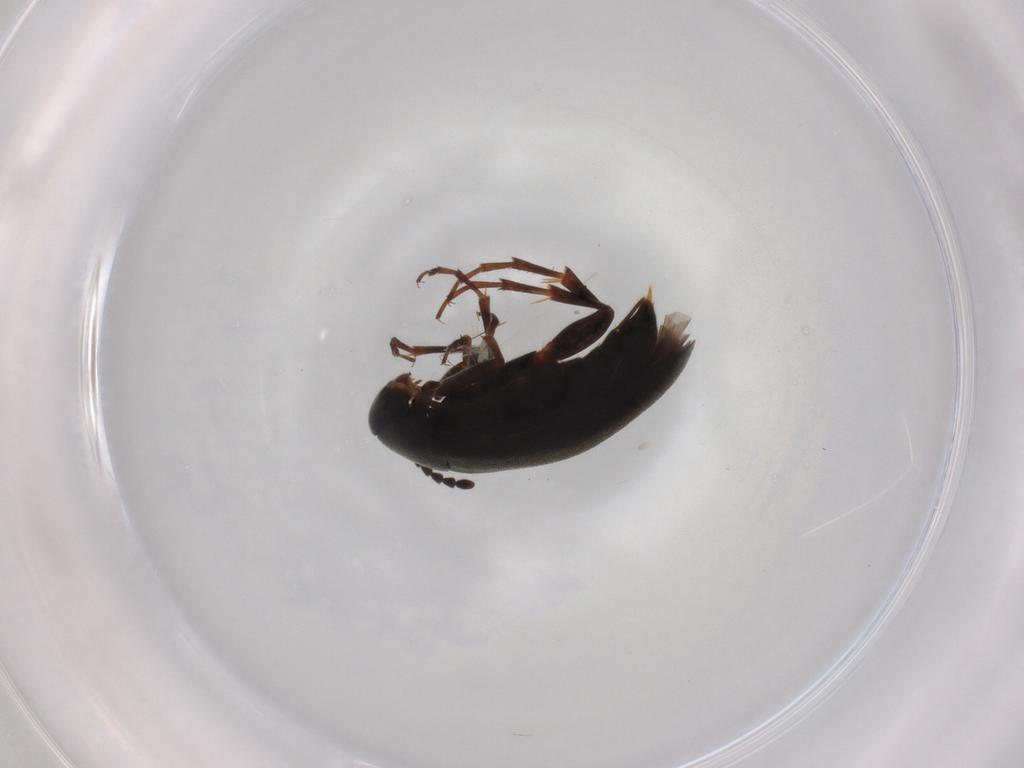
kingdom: Animalia
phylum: Arthropoda
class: Insecta
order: Coleoptera
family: Scraptiidae
